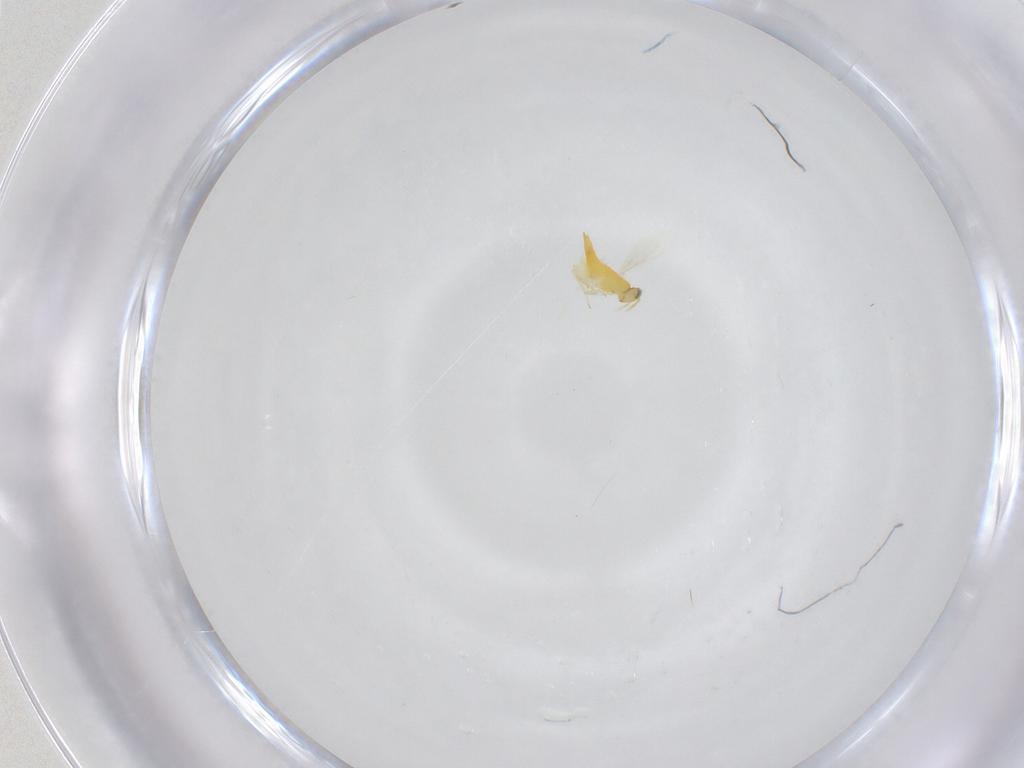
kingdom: Animalia
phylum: Arthropoda
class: Insecta
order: Hymenoptera
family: Aphelinidae
